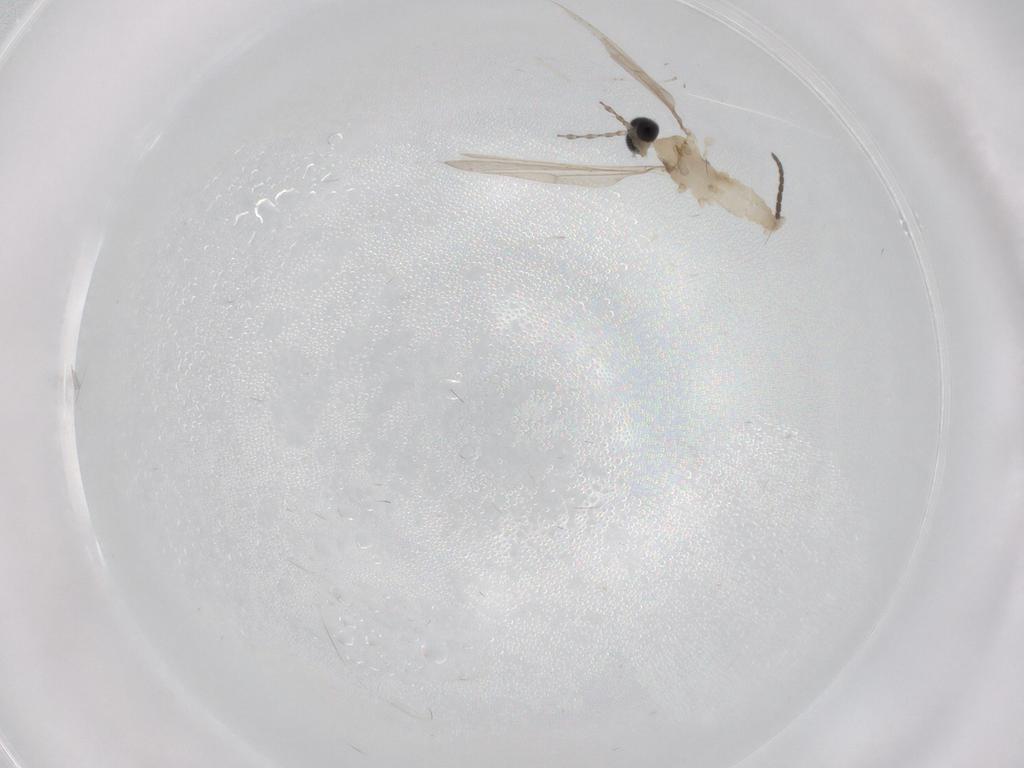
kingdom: Animalia
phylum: Arthropoda
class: Insecta
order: Diptera
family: Cecidomyiidae
